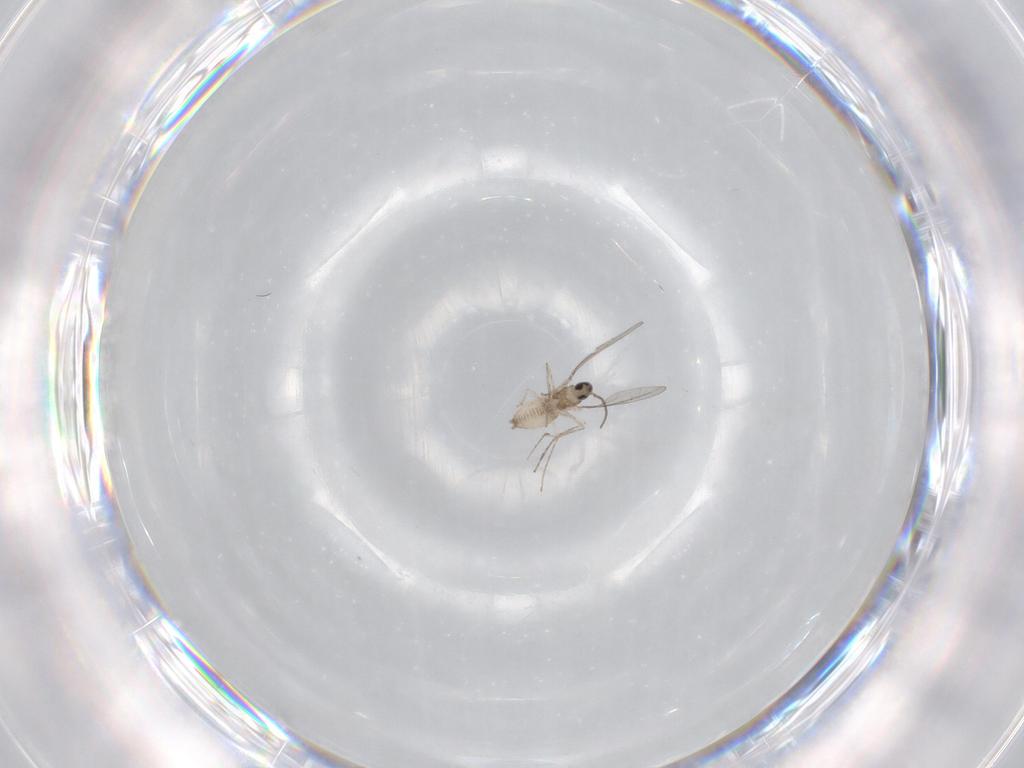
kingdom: Animalia
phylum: Arthropoda
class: Insecta
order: Diptera
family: Cecidomyiidae
